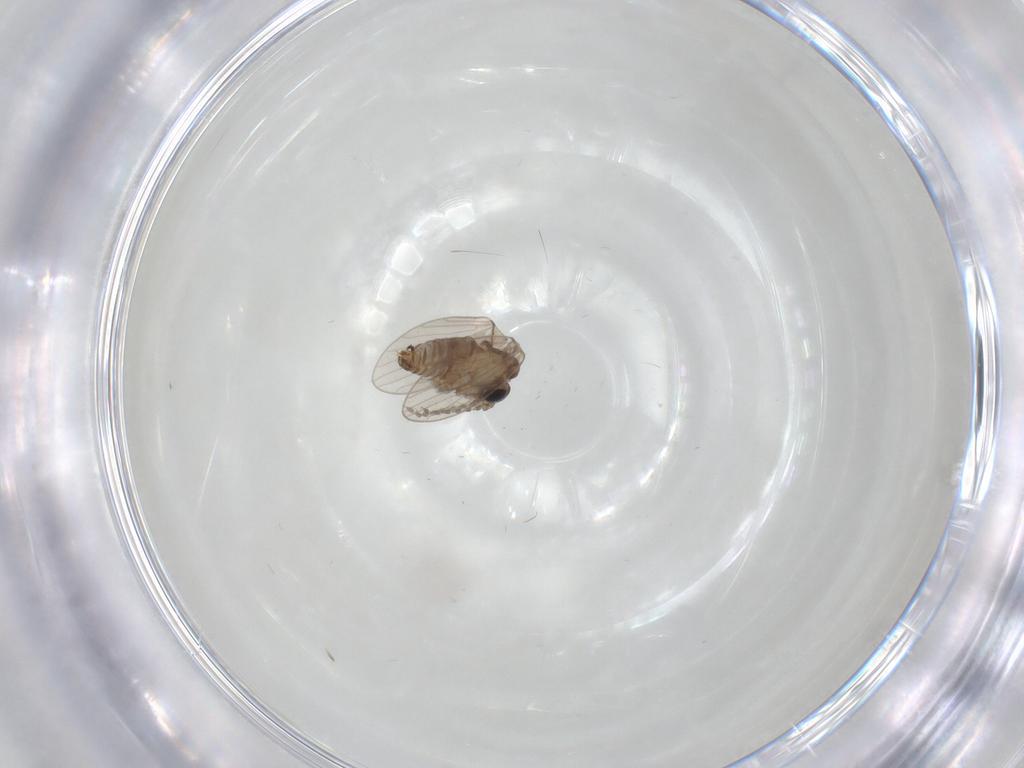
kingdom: Animalia
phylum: Arthropoda
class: Insecta
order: Diptera
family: Psychodidae
